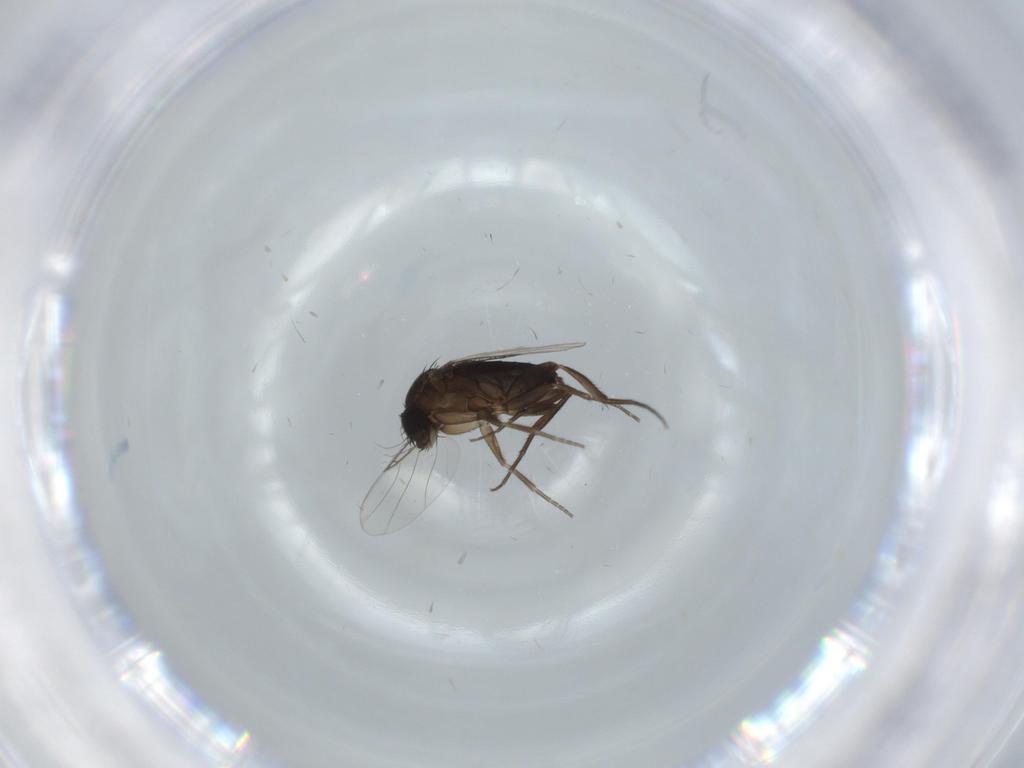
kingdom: Animalia
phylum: Arthropoda
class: Insecta
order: Diptera
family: Phoridae
